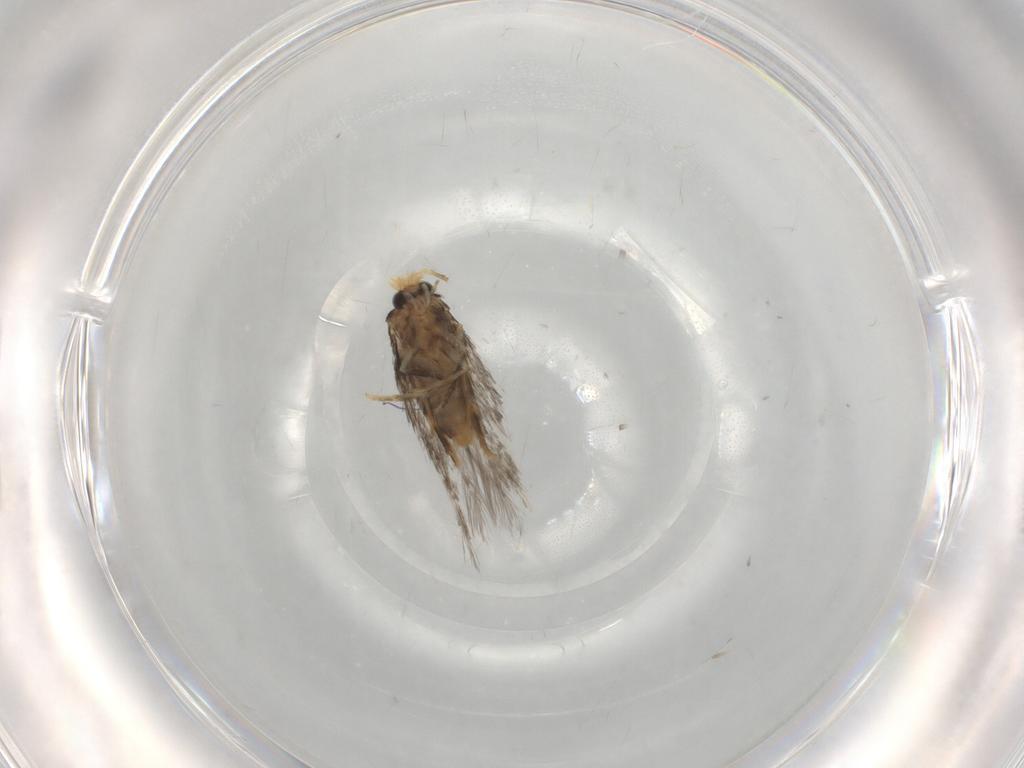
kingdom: Animalia
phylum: Arthropoda
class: Insecta
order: Lepidoptera
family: Nepticulidae
